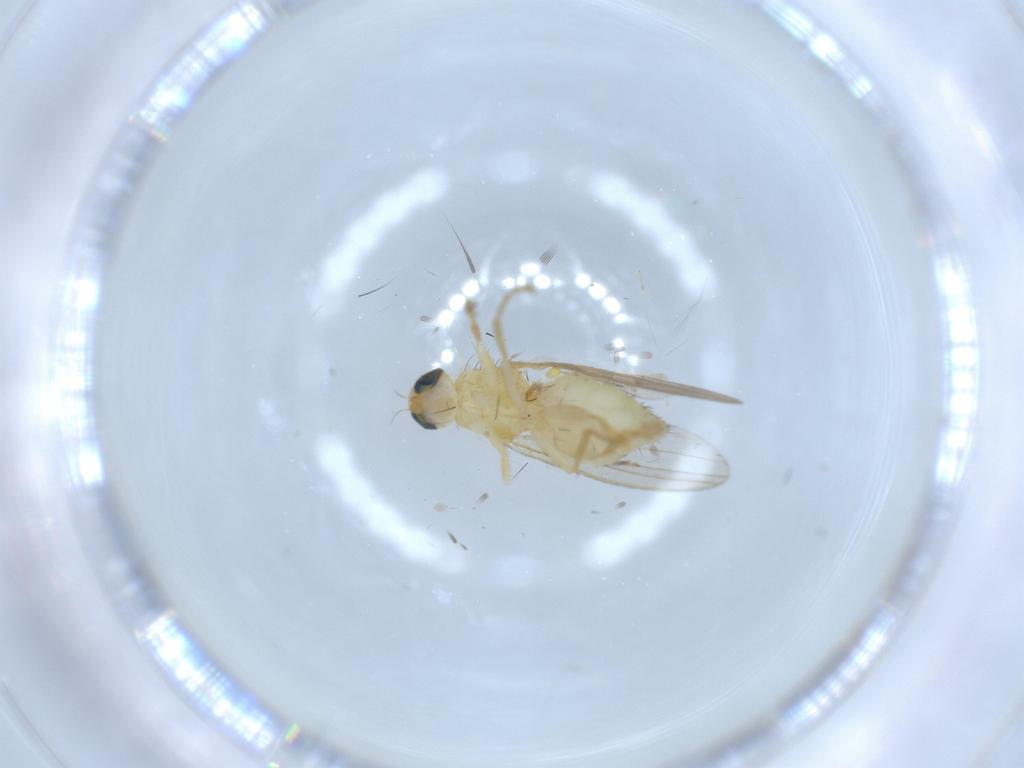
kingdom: Animalia
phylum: Arthropoda
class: Insecta
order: Diptera
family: Chyromyidae
